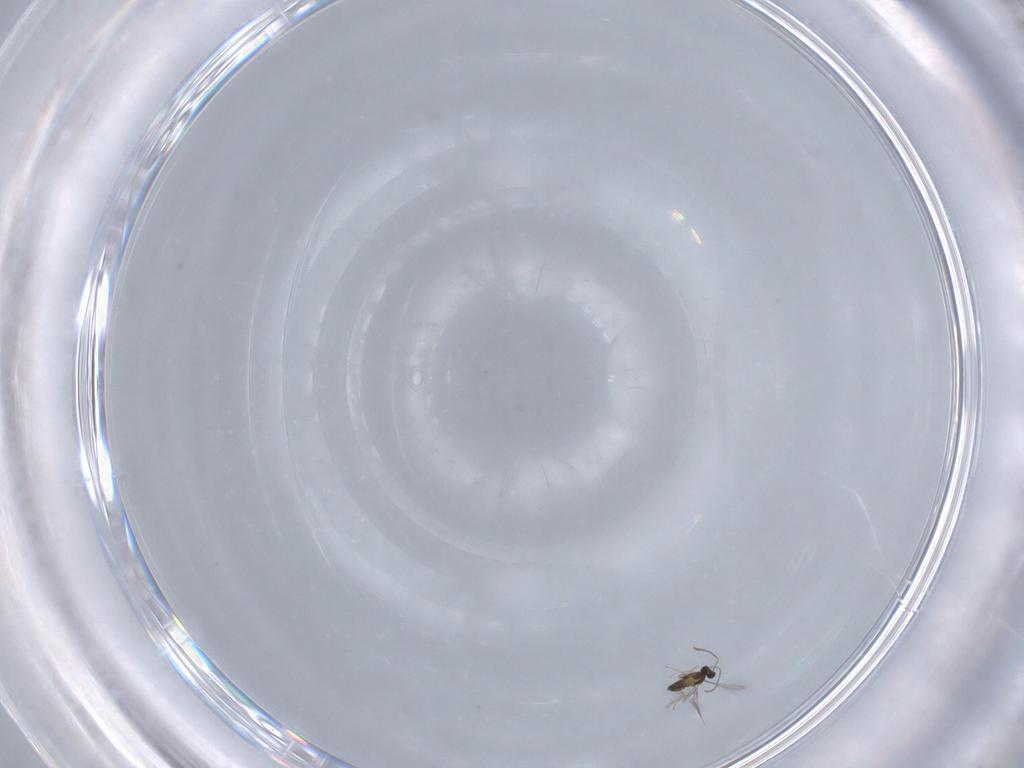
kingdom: Animalia
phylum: Arthropoda
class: Insecta
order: Hymenoptera
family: Mymaridae
